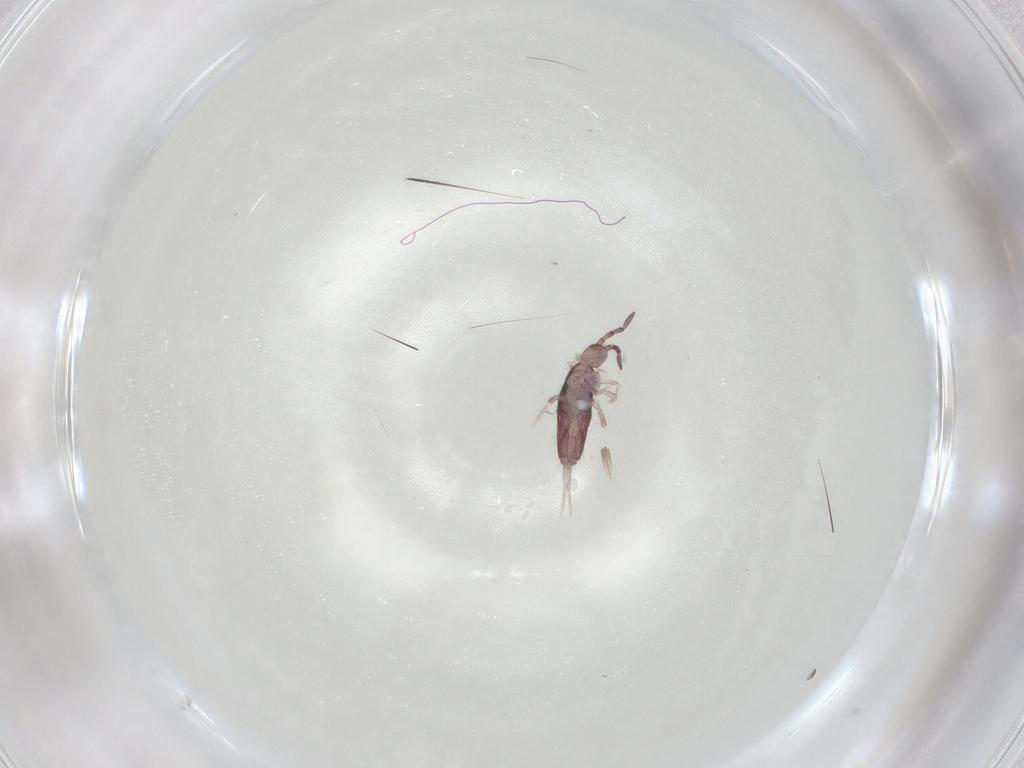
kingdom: Animalia
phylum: Arthropoda
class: Collembola
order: Entomobryomorpha
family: Entomobryidae
